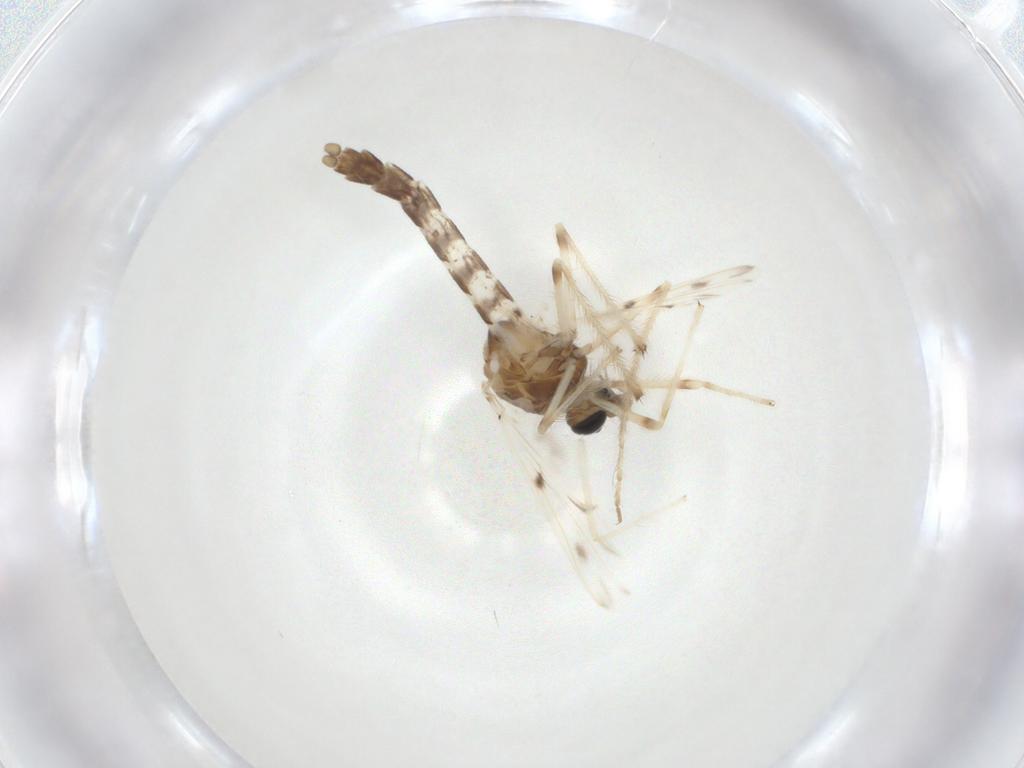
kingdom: Animalia
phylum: Arthropoda
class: Insecta
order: Diptera
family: Chironomidae
